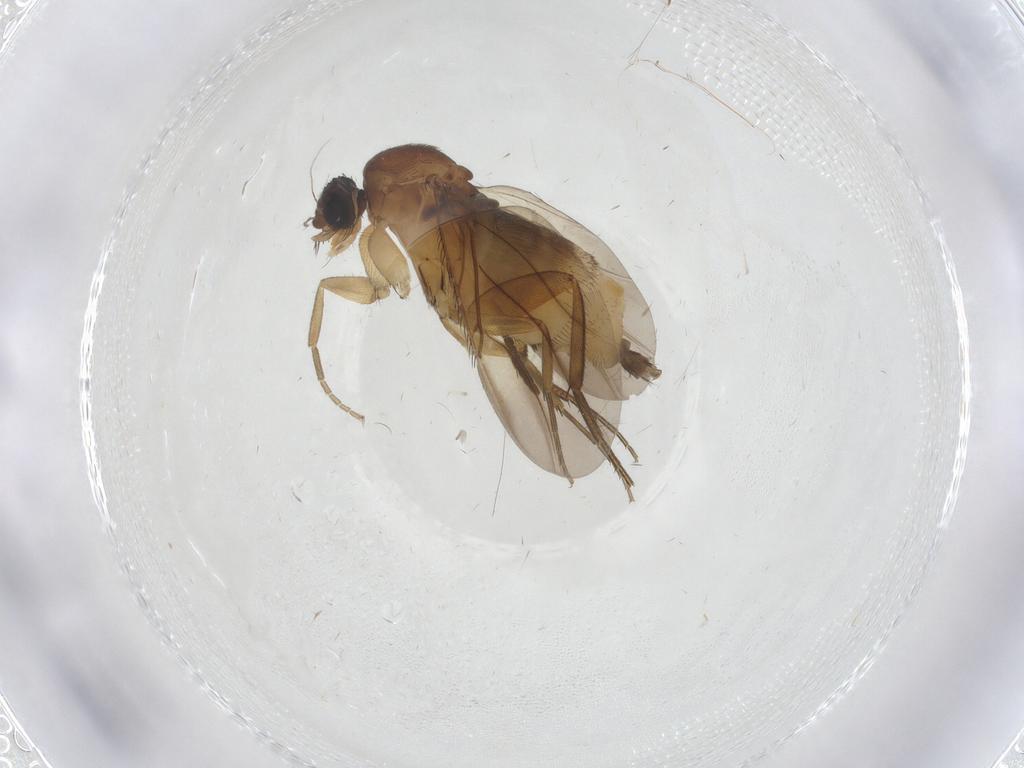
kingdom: Animalia
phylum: Arthropoda
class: Insecta
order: Diptera
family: Phoridae
